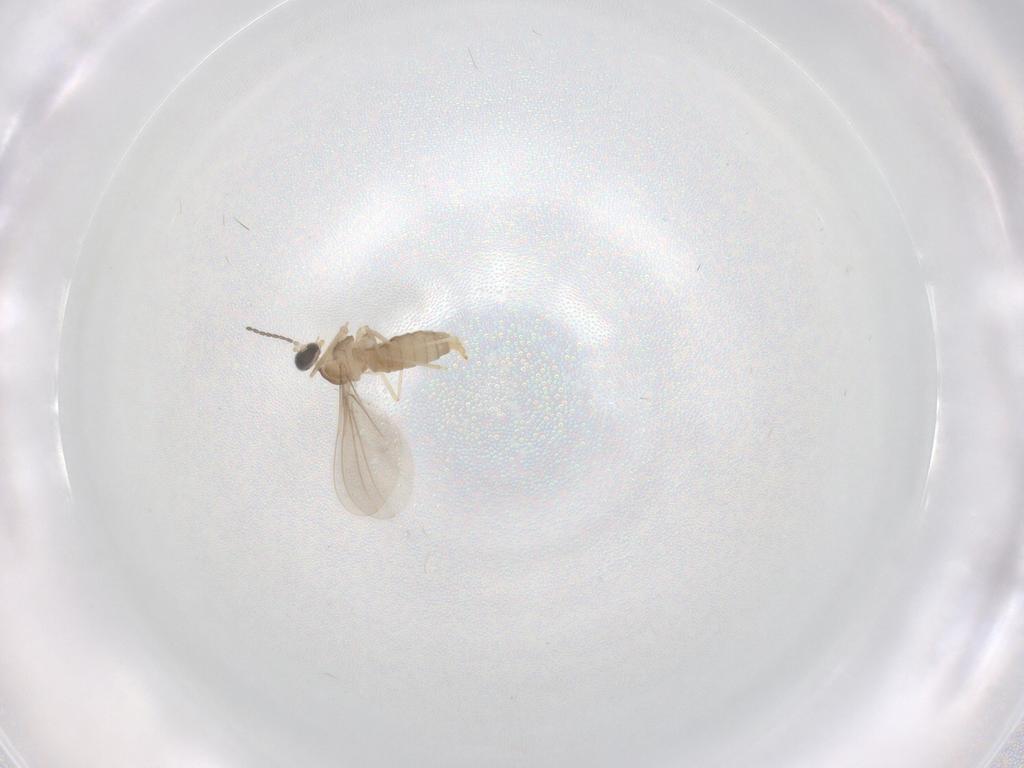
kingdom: Animalia
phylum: Arthropoda
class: Insecta
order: Diptera
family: Cecidomyiidae
